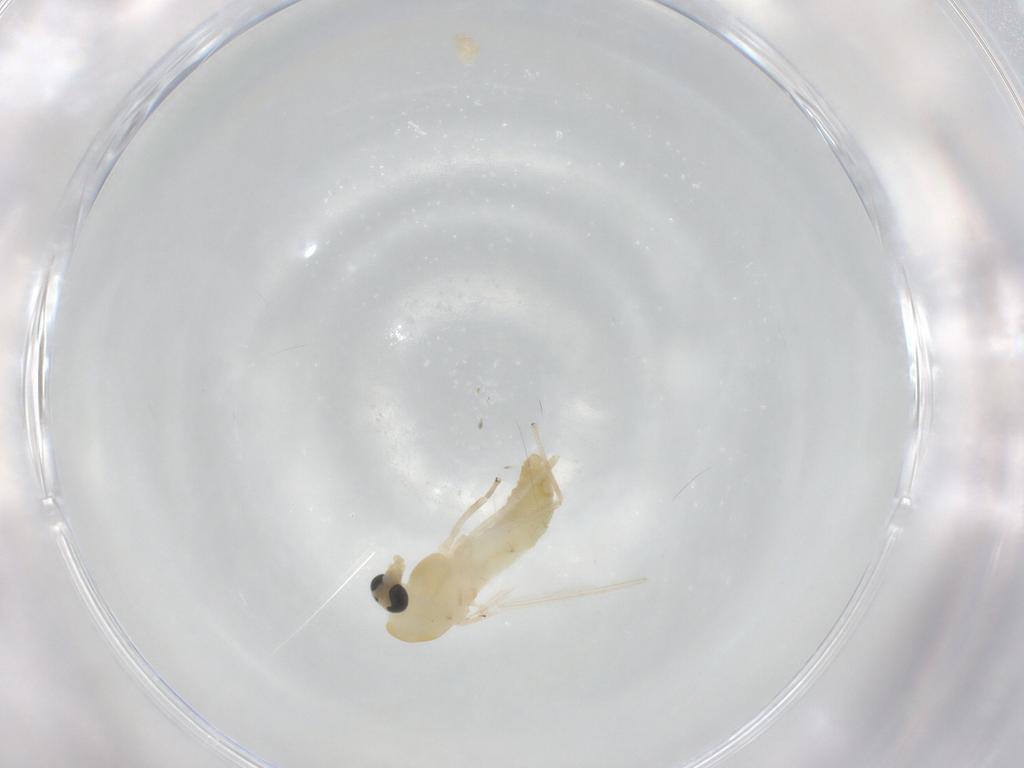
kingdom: Animalia
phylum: Arthropoda
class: Insecta
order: Diptera
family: Chironomidae
